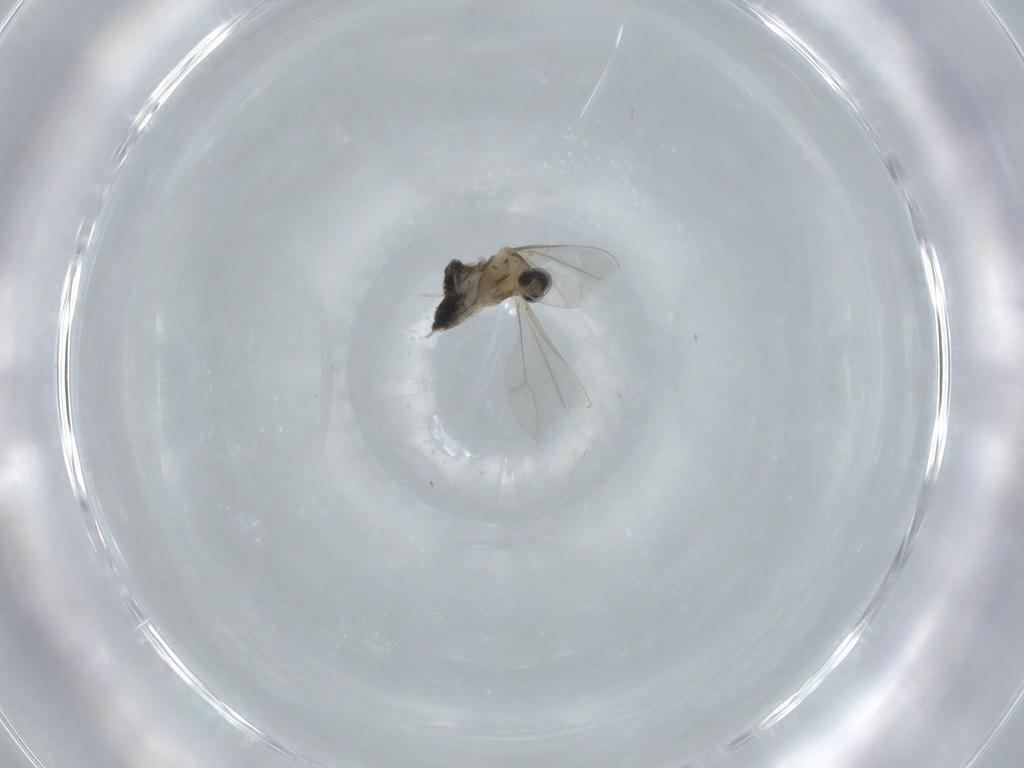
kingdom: Animalia
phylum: Arthropoda
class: Insecta
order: Diptera
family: Cecidomyiidae
